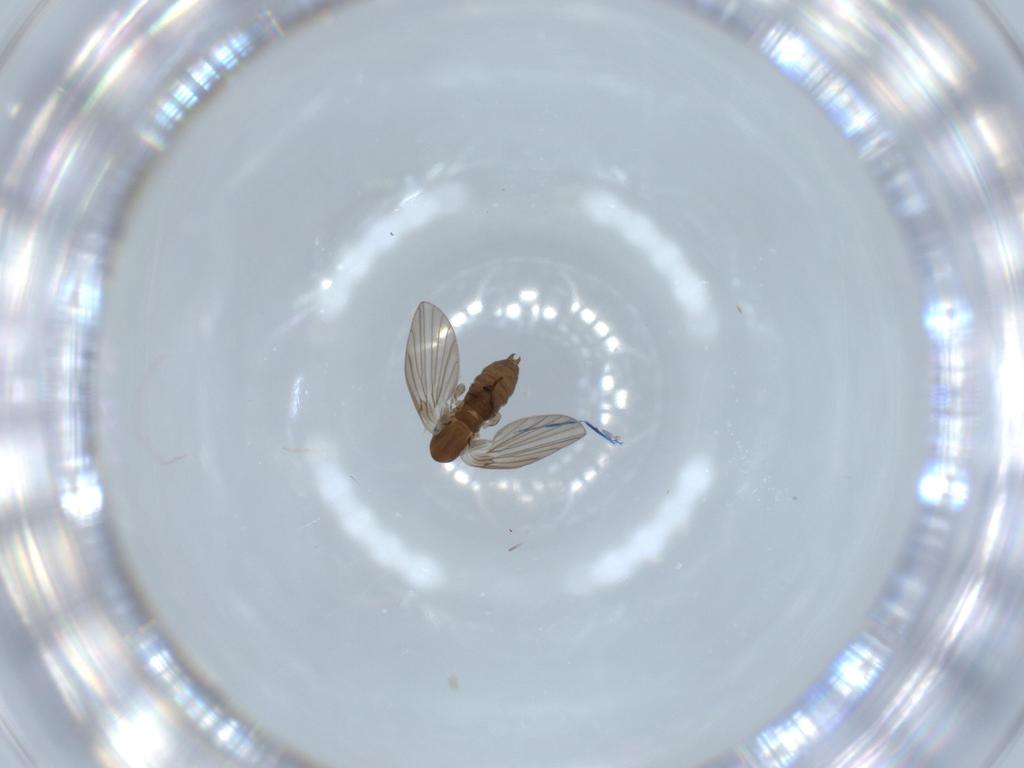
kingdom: Animalia
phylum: Arthropoda
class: Insecta
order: Diptera
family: Psychodidae
